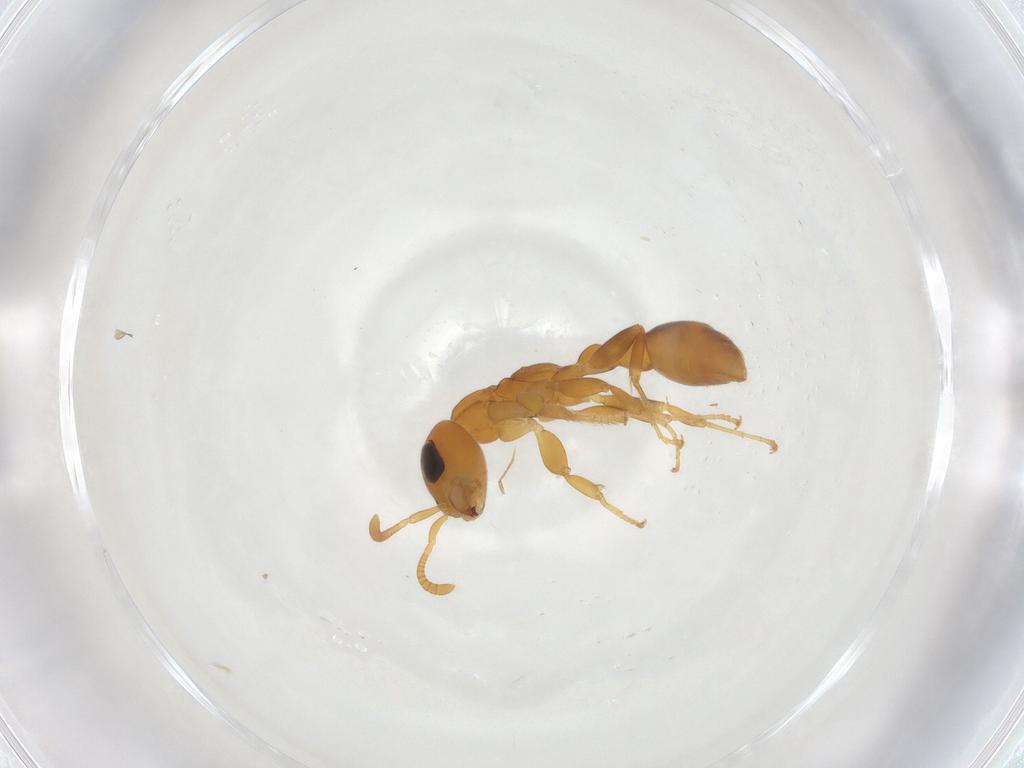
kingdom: Animalia
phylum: Arthropoda
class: Insecta
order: Hymenoptera
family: Formicidae
